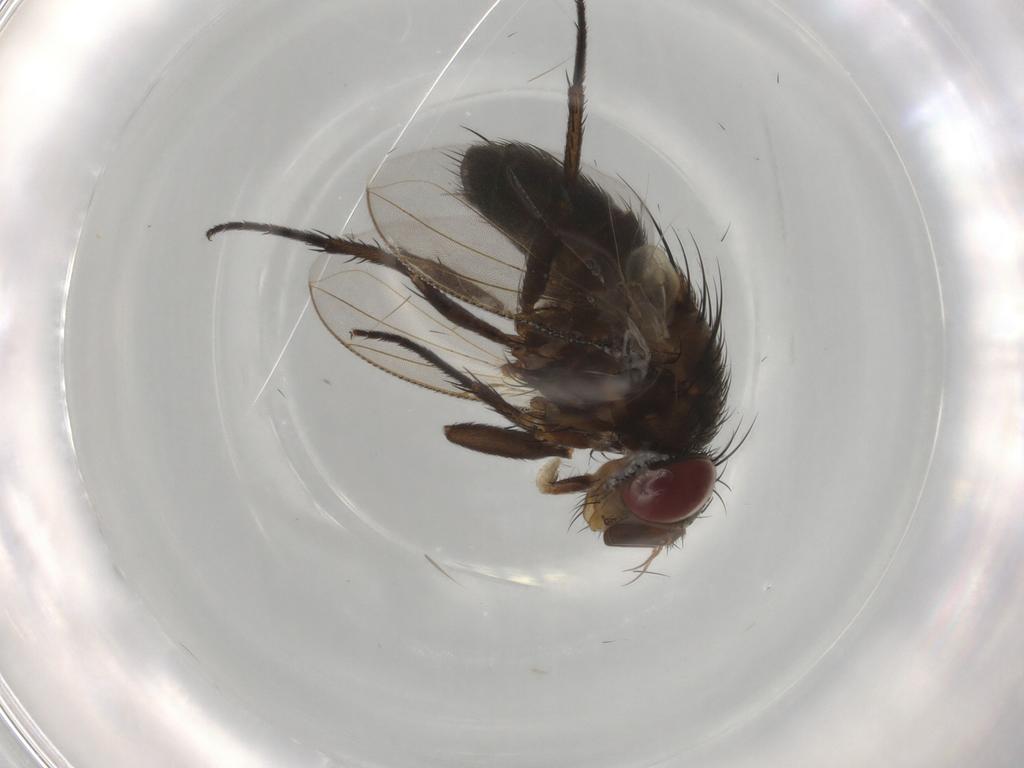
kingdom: Animalia
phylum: Arthropoda
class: Insecta
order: Diptera
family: Tachinidae
